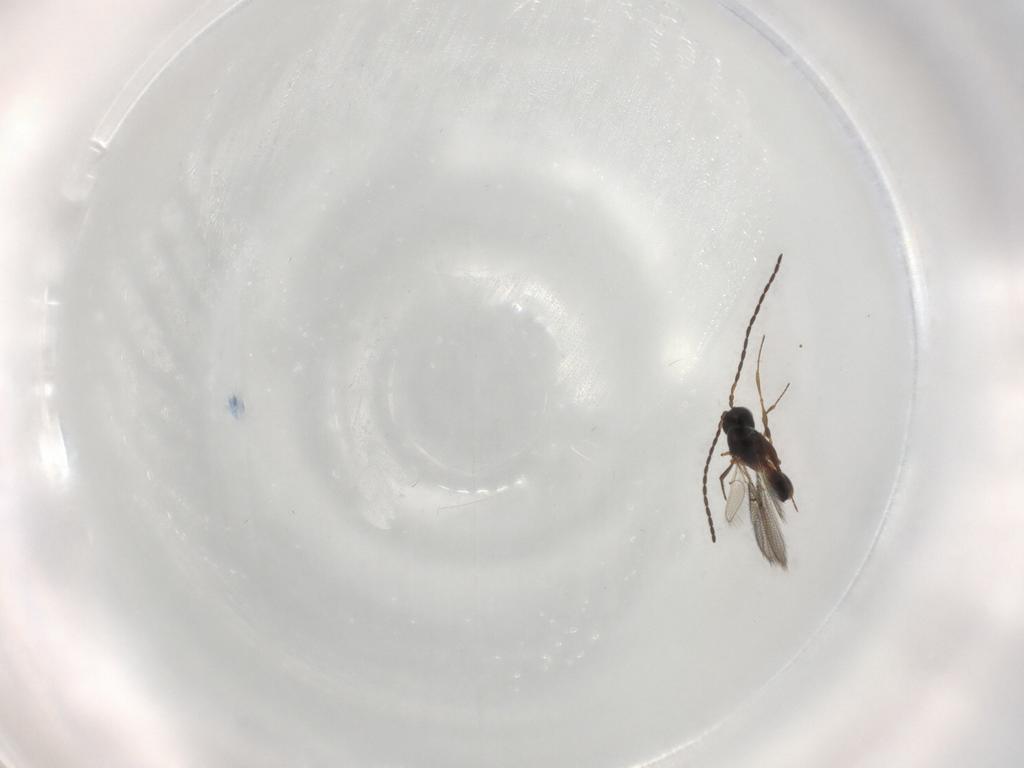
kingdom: Animalia
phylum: Arthropoda
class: Insecta
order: Hymenoptera
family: Figitidae
